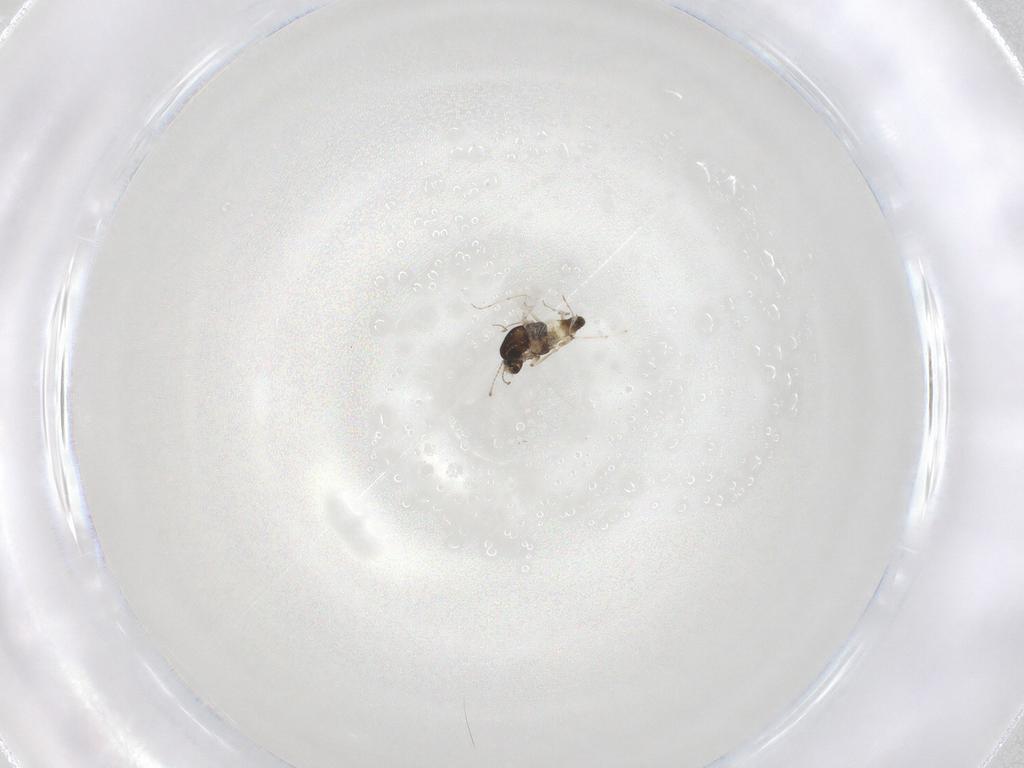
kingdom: Animalia
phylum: Arthropoda
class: Insecta
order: Diptera
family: Chironomidae
